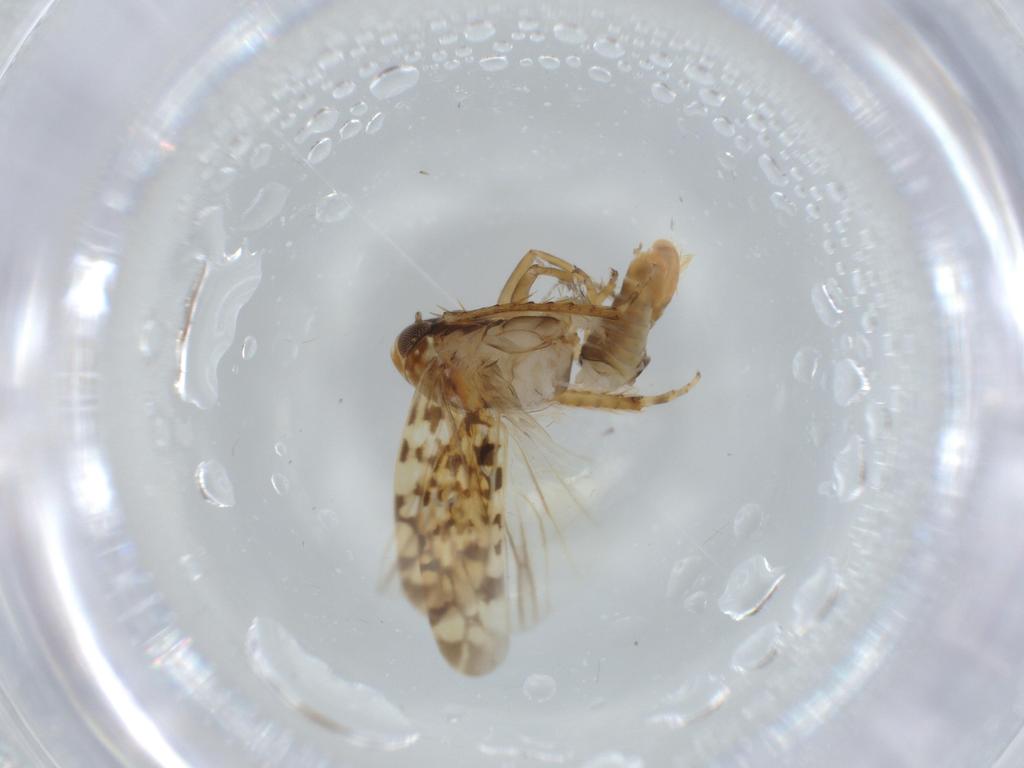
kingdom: Animalia
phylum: Arthropoda
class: Insecta
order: Hemiptera
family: Cicadellidae
